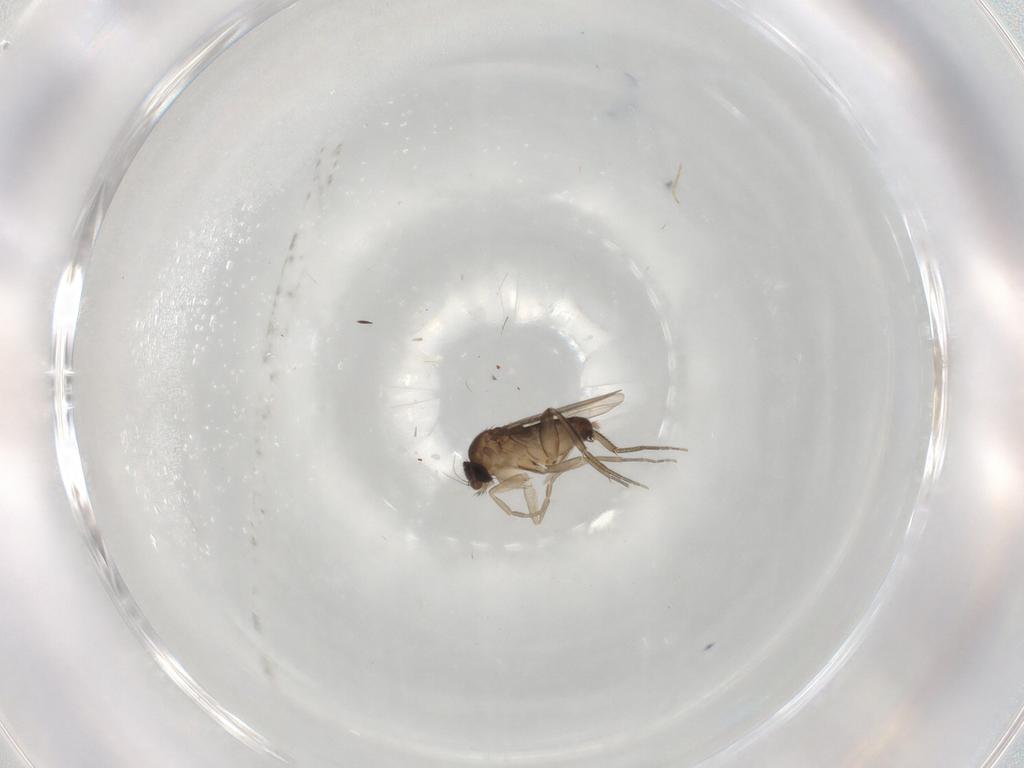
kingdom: Animalia
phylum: Arthropoda
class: Insecta
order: Diptera
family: Phoridae
